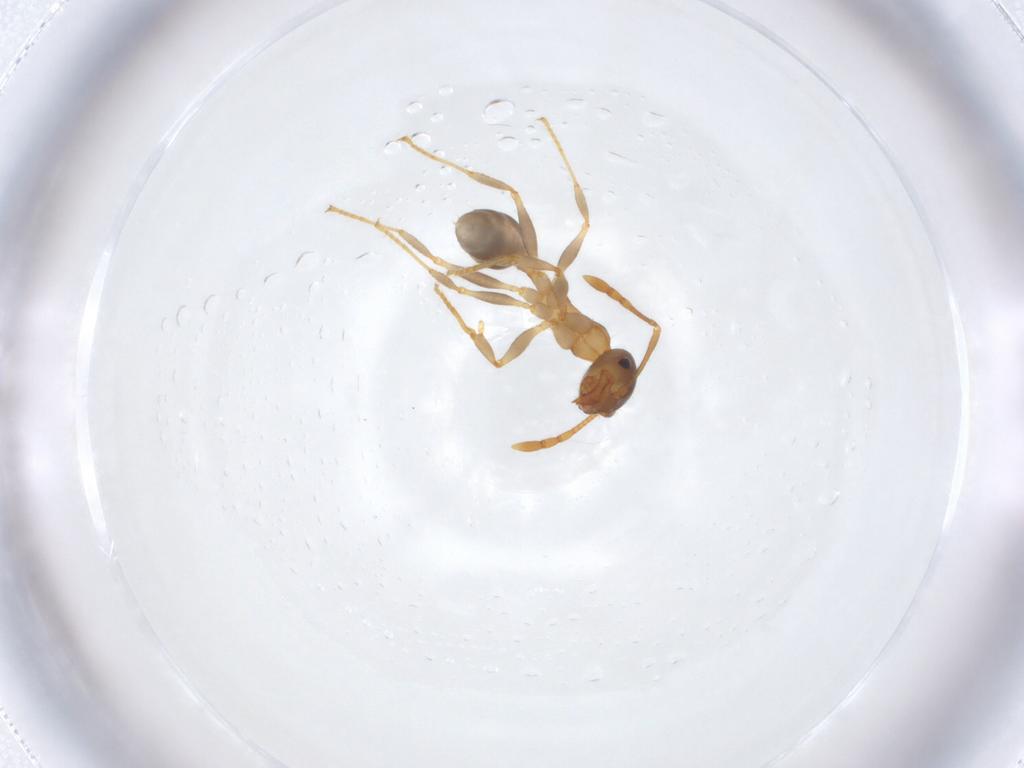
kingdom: Animalia
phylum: Arthropoda
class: Insecta
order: Hymenoptera
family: Formicidae
